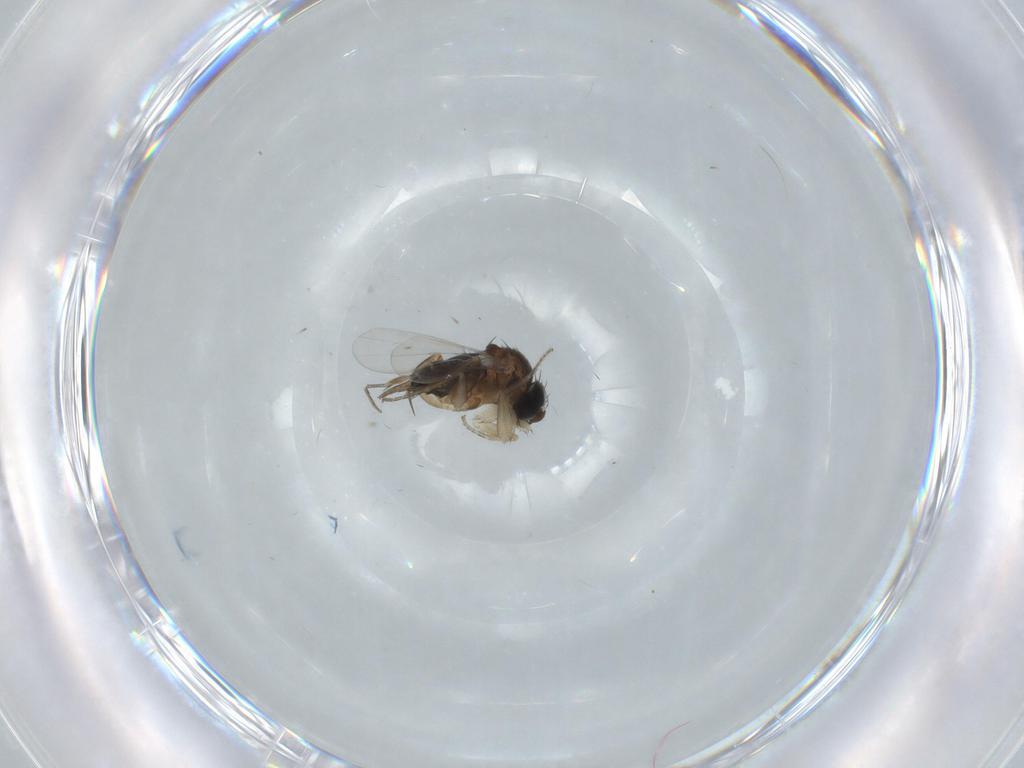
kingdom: Animalia
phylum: Arthropoda
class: Insecta
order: Diptera
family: Phoridae
